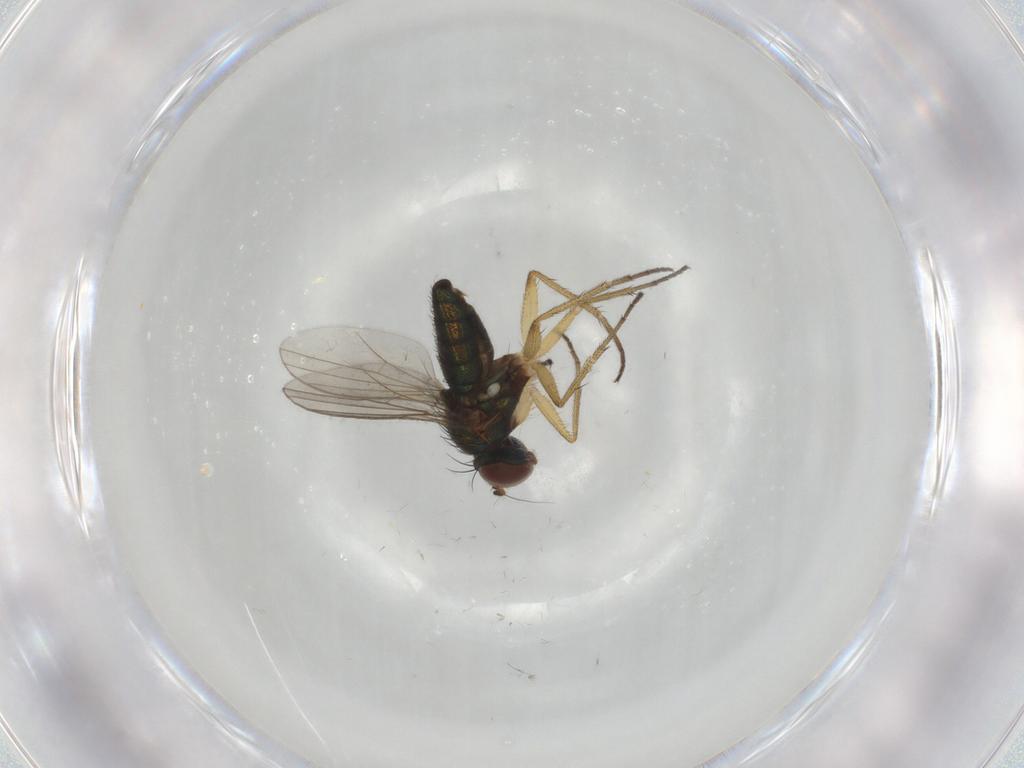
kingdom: Animalia
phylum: Arthropoda
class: Insecta
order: Diptera
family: Dolichopodidae
